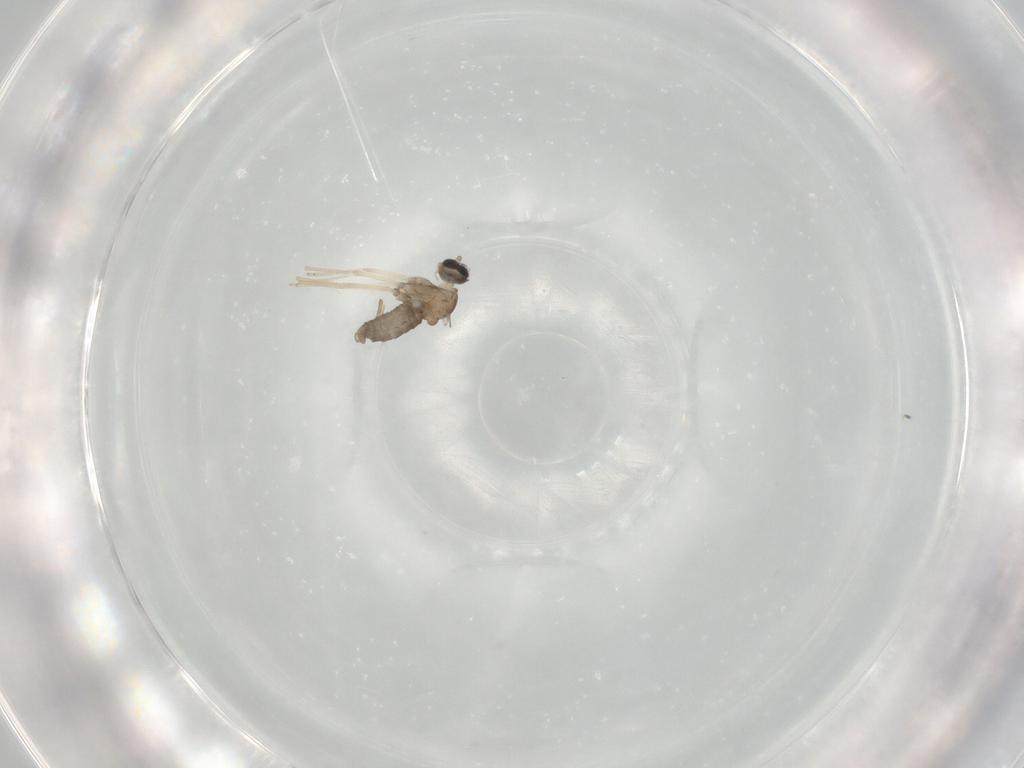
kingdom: Animalia
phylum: Arthropoda
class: Insecta
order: Diptera
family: Cecidomyiidae
